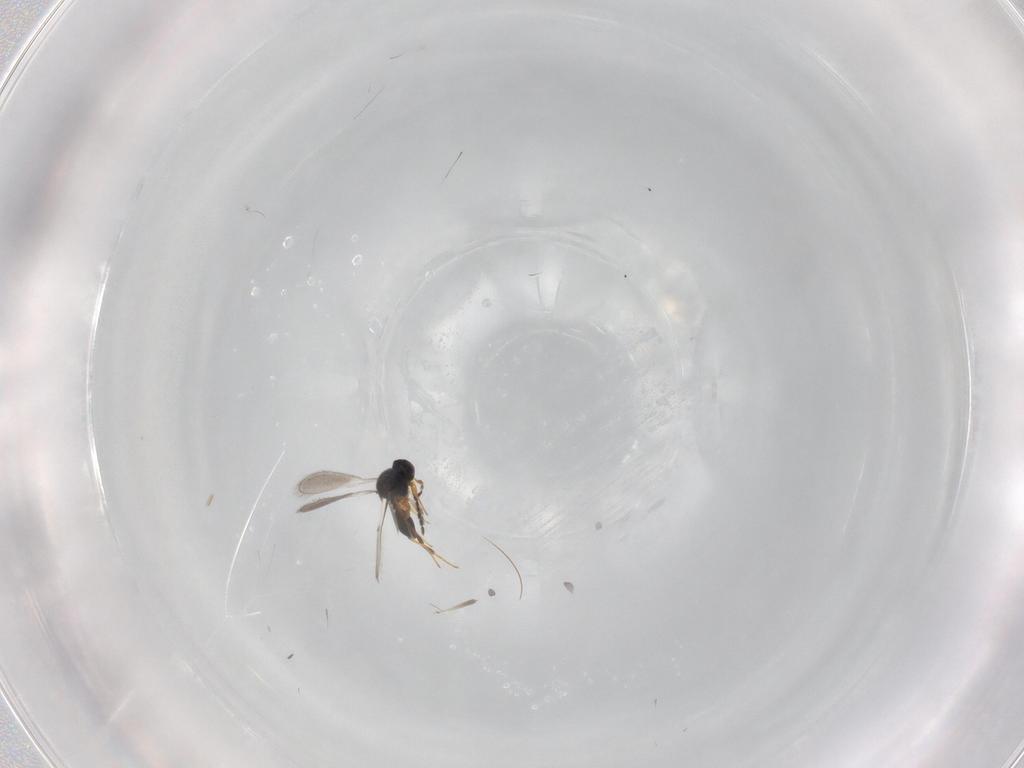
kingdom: Animalia
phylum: Arthropoda
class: Insecta
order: Hymenoptera
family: Platygastridae
